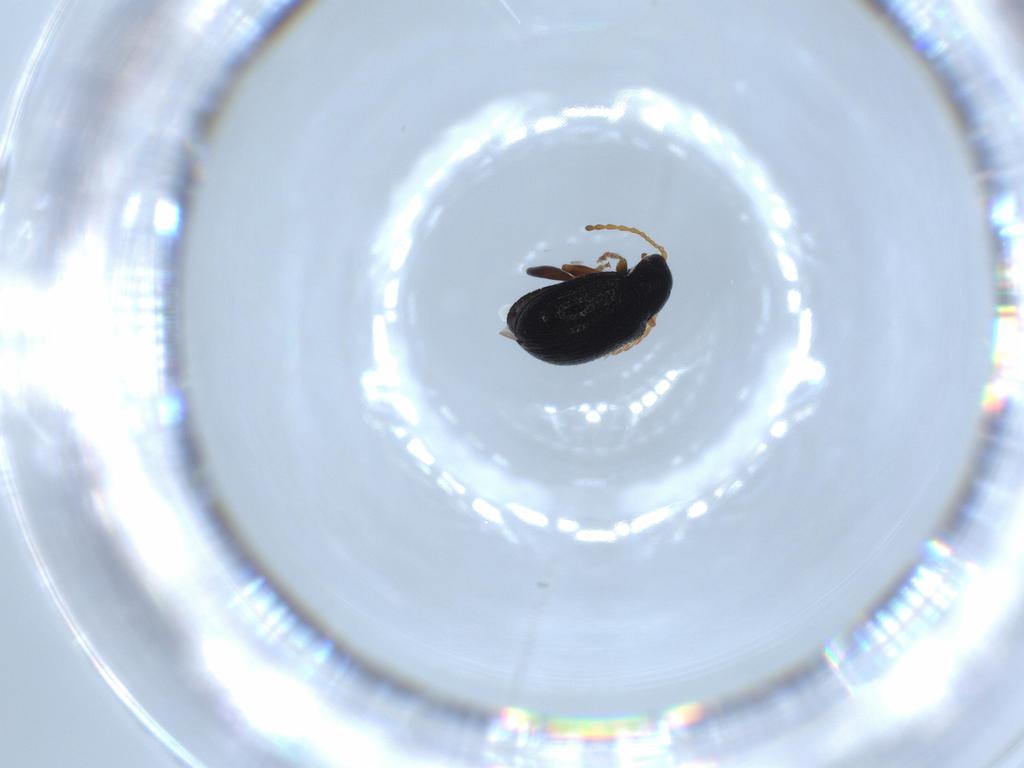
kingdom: Animalia
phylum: Arthropoda
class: Insecta
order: Coleoptera
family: Chrysomelidae
